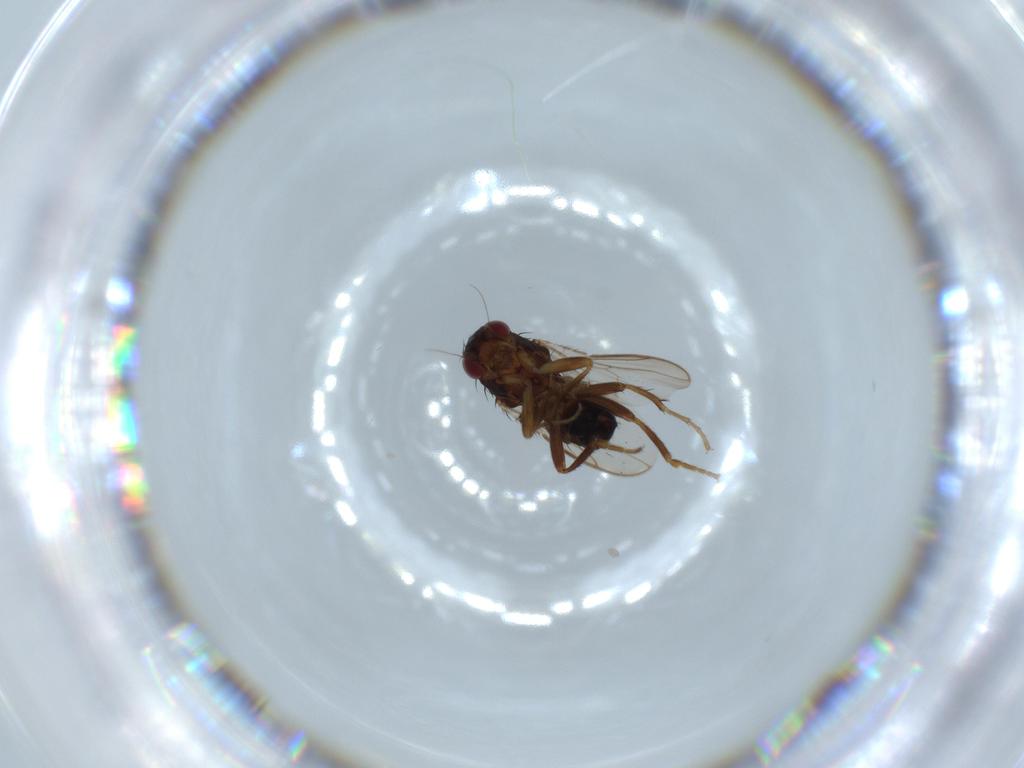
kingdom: Animalia
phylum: Arthropoda
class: Insecta
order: Diptera
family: Sphaeroceridae
